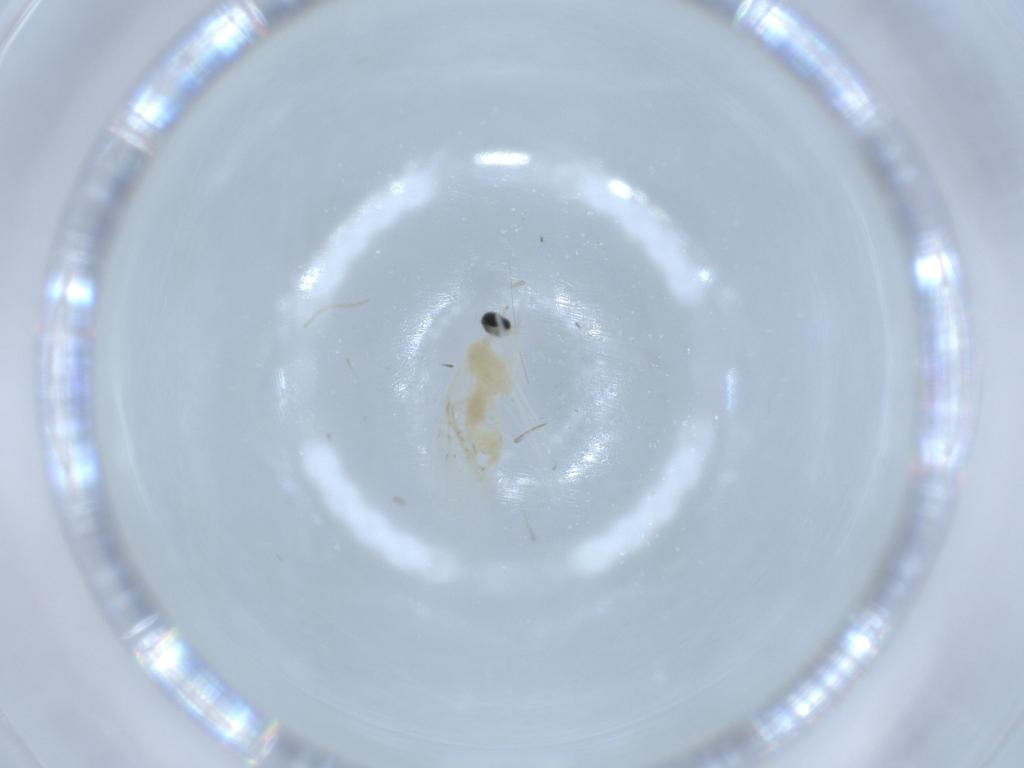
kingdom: Animalia
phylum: Arthropoda
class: Insecta
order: Diptera
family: Cecidomyiidae
